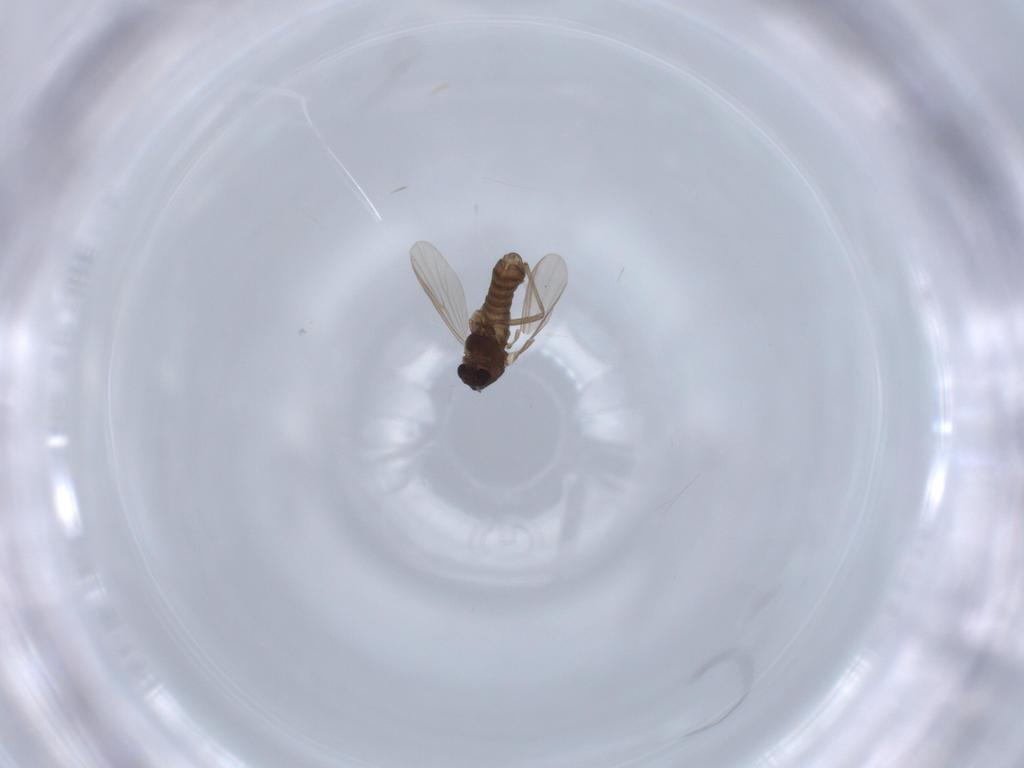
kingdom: Animalia
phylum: Arthropoda
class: Insecta
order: Diptera
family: Chironomidae
